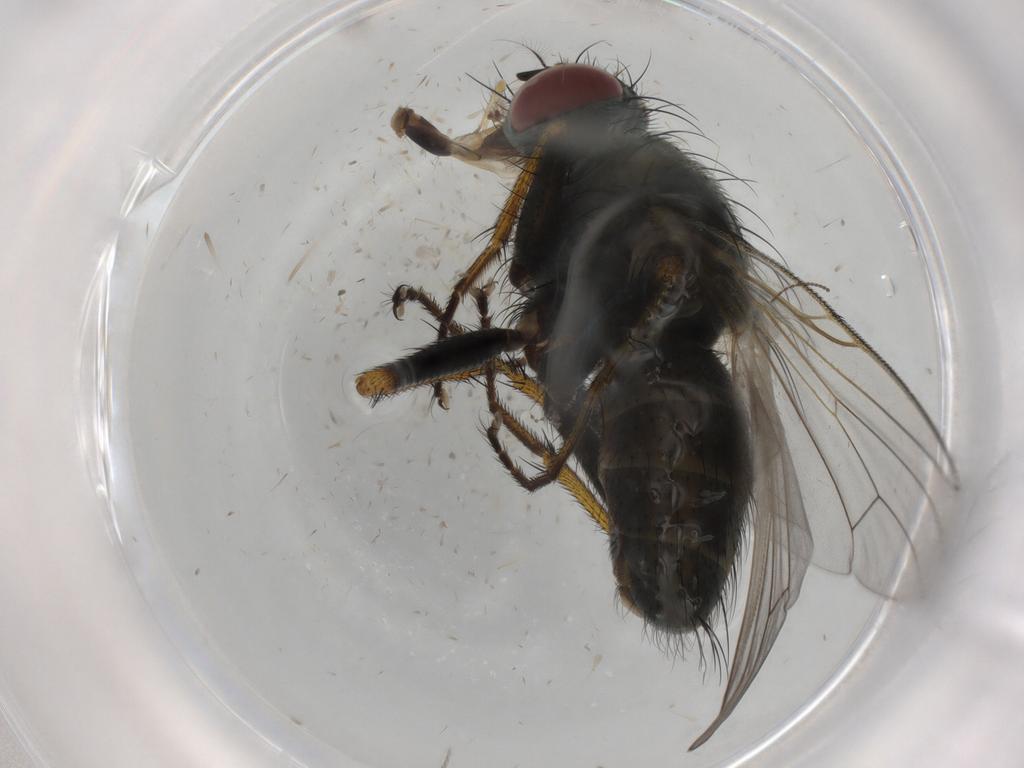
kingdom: Animalia
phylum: Arthropoda
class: Insecta
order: Diptera
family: Muscidae
